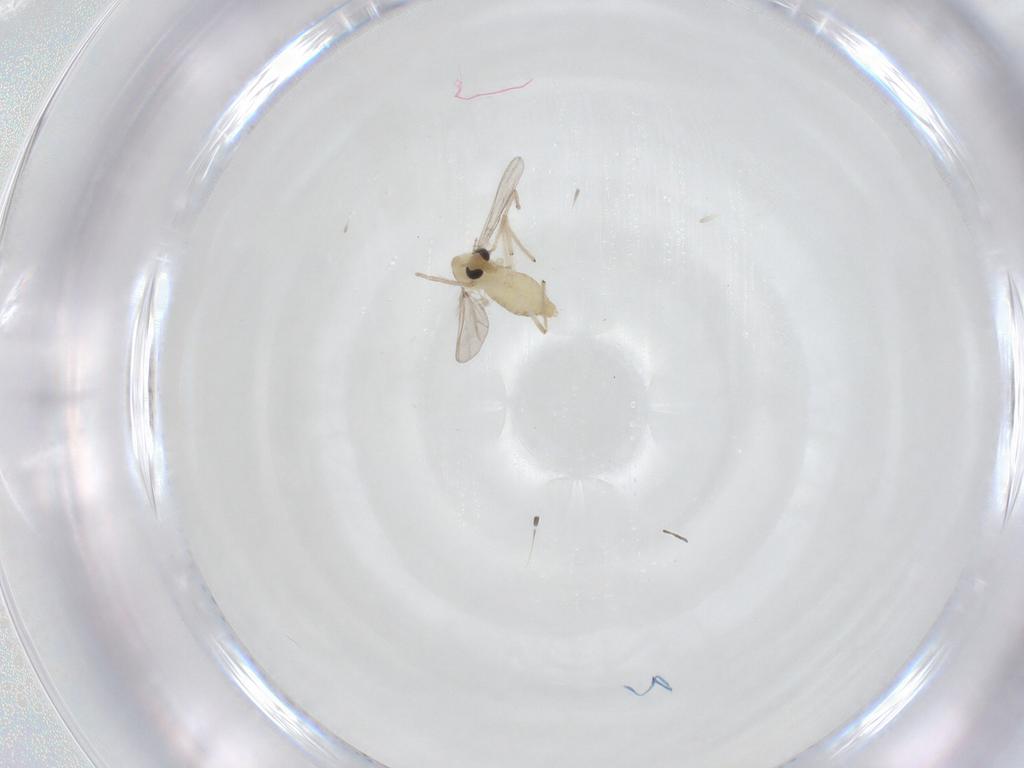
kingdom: Animalia
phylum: Arthropoda
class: Insecta
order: Diptera
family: Chironomidae
